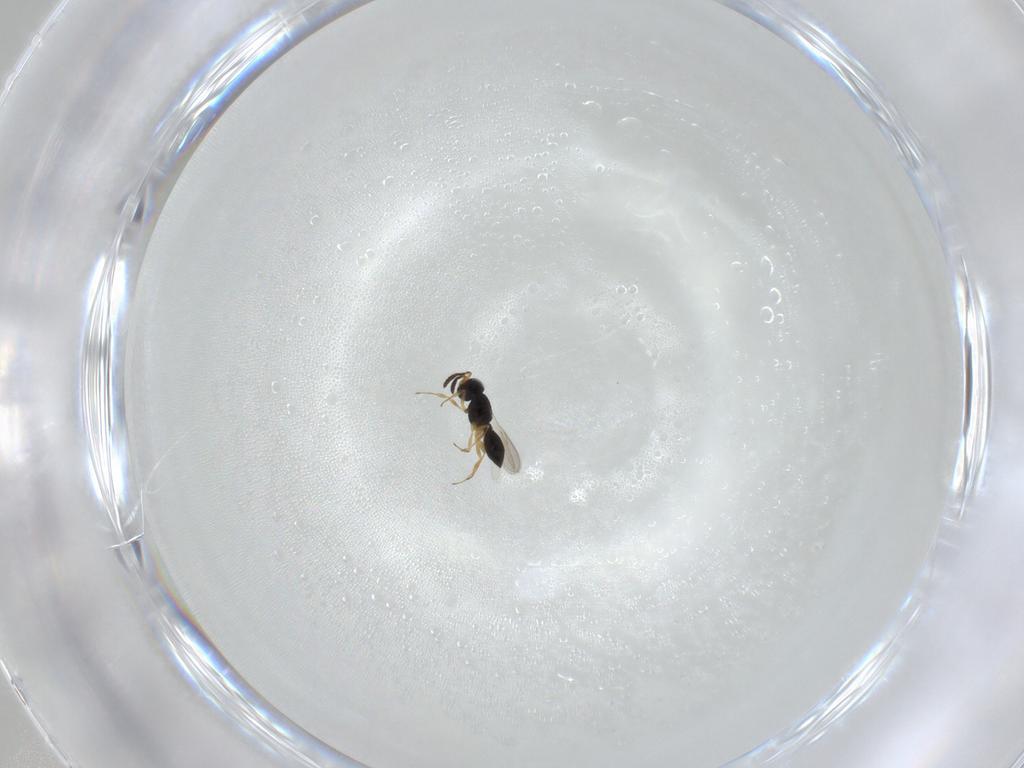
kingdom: Animalia
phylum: Arthropoda
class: Insecta
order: Hymenoptera
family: Scelionidae
